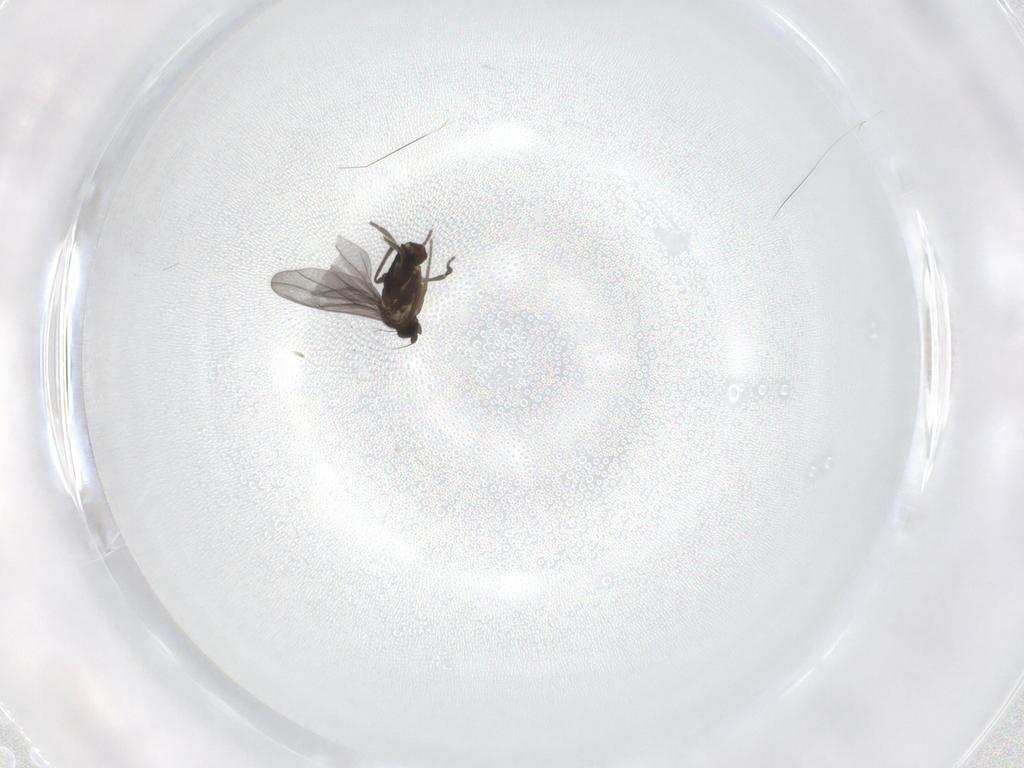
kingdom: Animalia
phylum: Arthropoda
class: Insecta
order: Diptera
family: Phoridae
